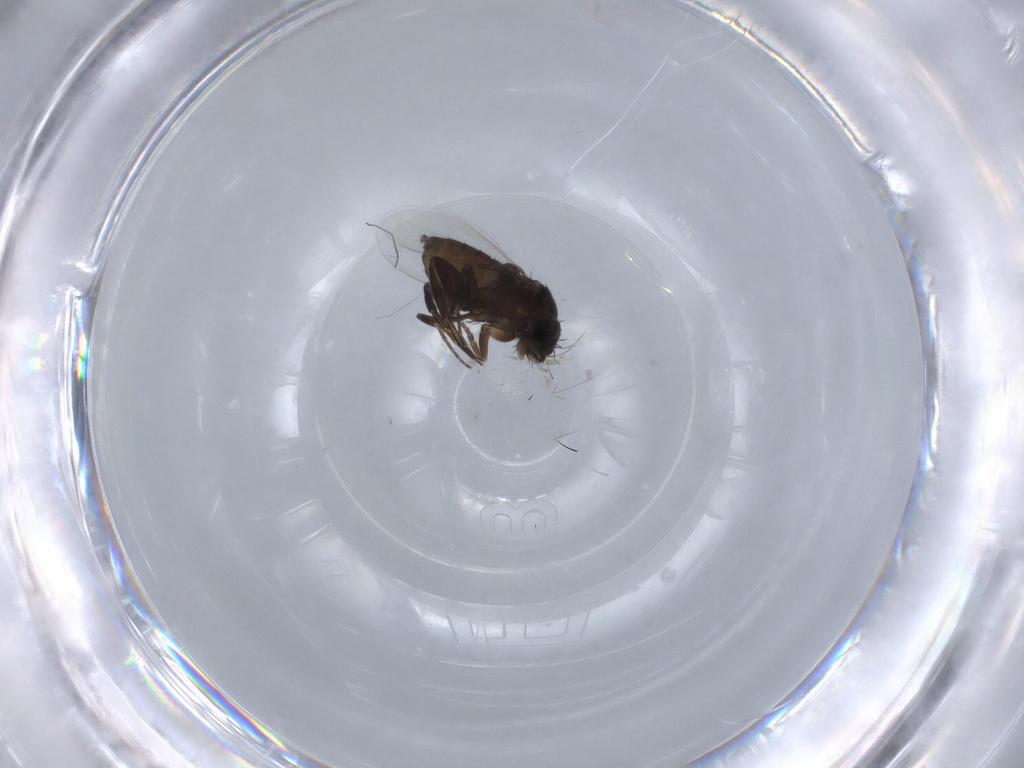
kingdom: Animalia
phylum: Arthropoda
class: Insecta
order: Diptera
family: Phoridae
